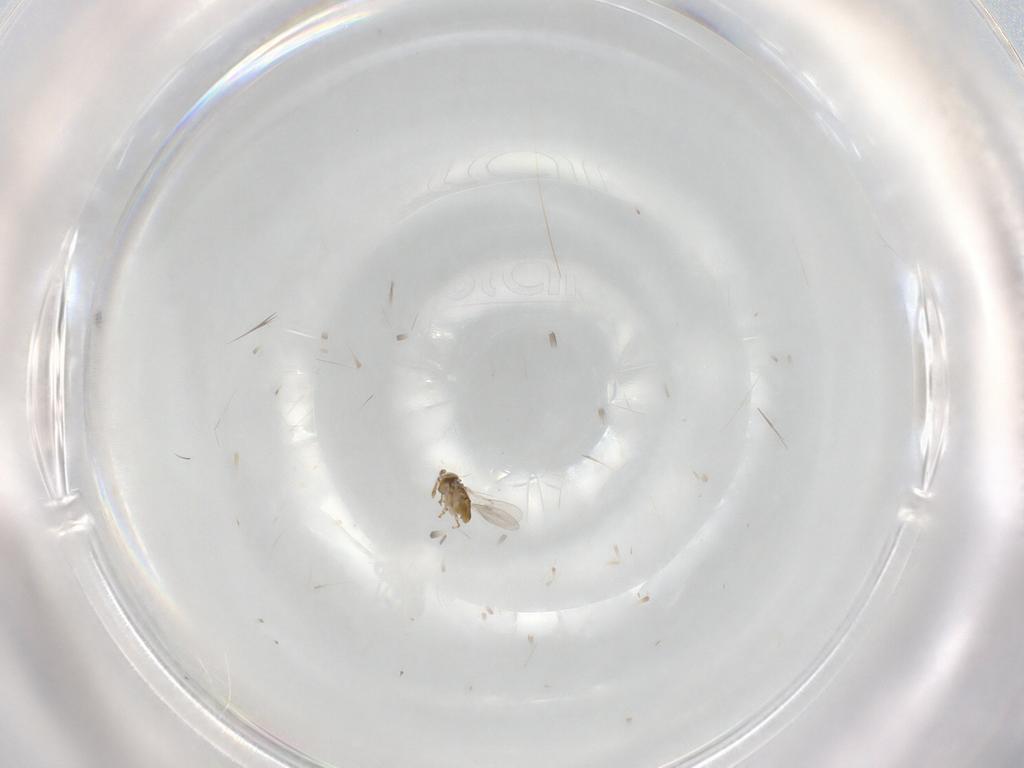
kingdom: Animalia
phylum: Arthropoda
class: Insecta
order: Hymenoptera
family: Encyrtidae
